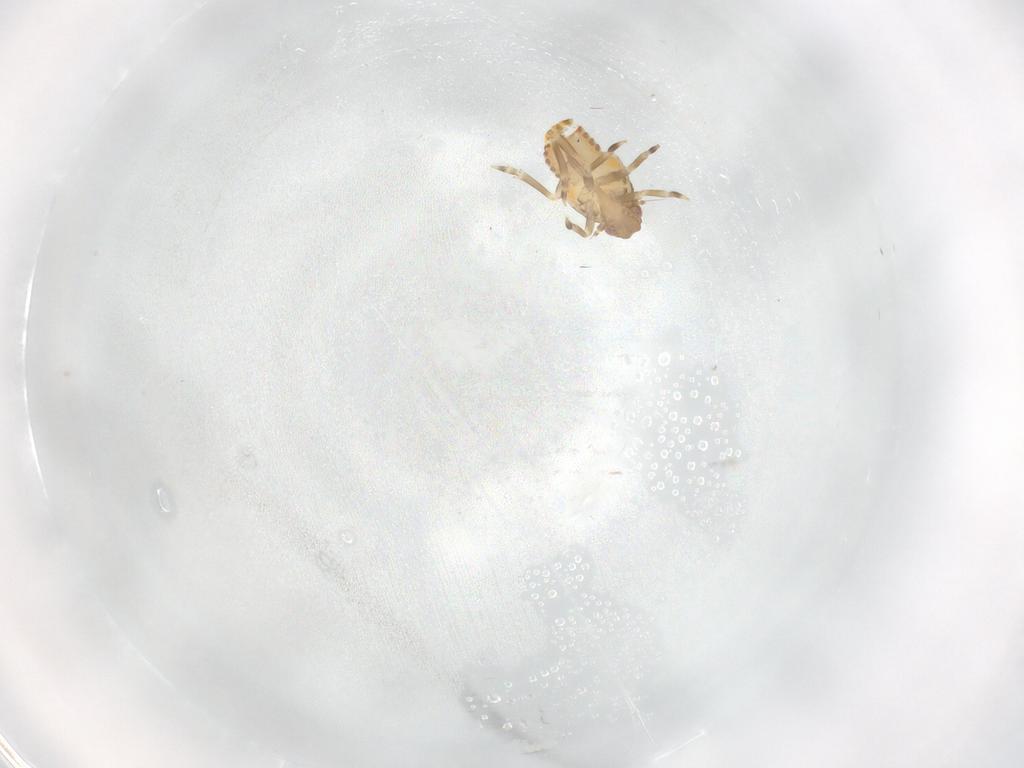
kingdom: Animalia
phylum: Arthropoda
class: Insecta
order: Hemiptera
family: Flatidae
